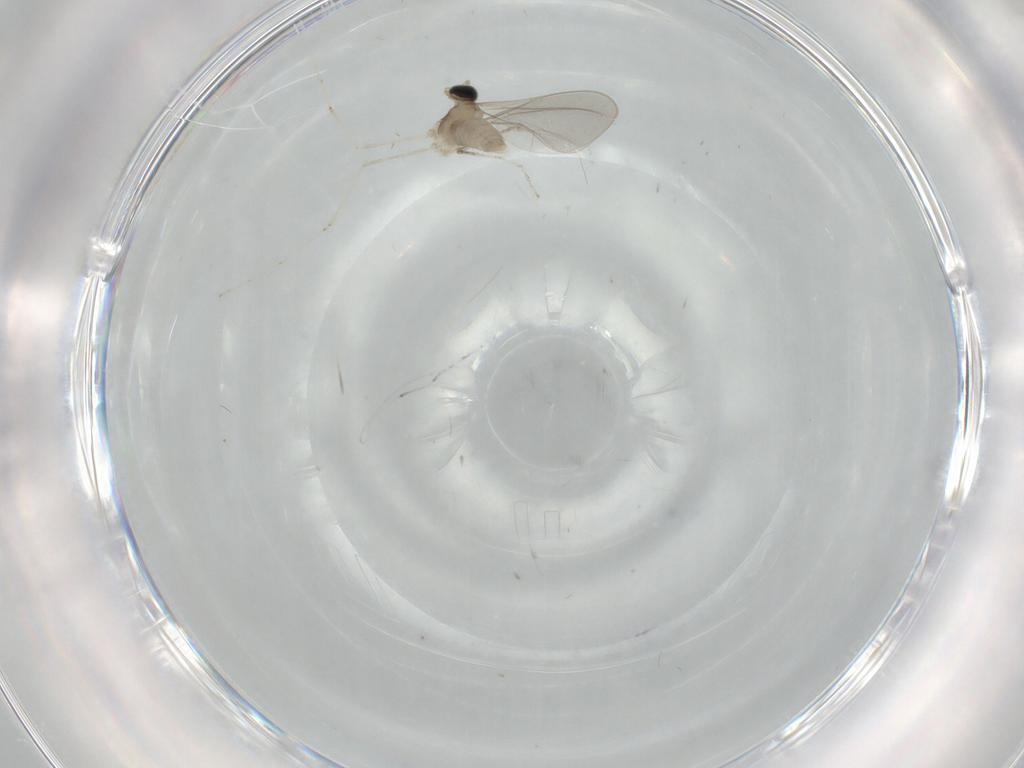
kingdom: Animalia
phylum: Arthropoda
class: Insecta
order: Diptera
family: Cecidomyiidae
